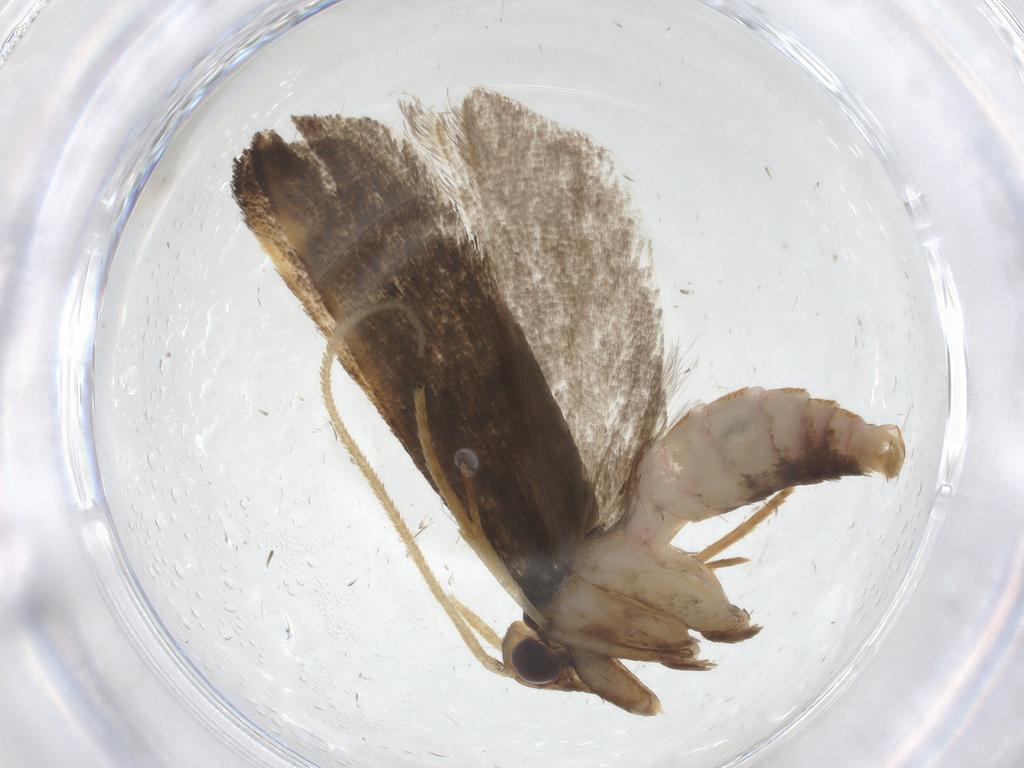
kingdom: Animalia
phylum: Arthropoda
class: Insecta
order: Lepidoptera
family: Lecithoceridae
